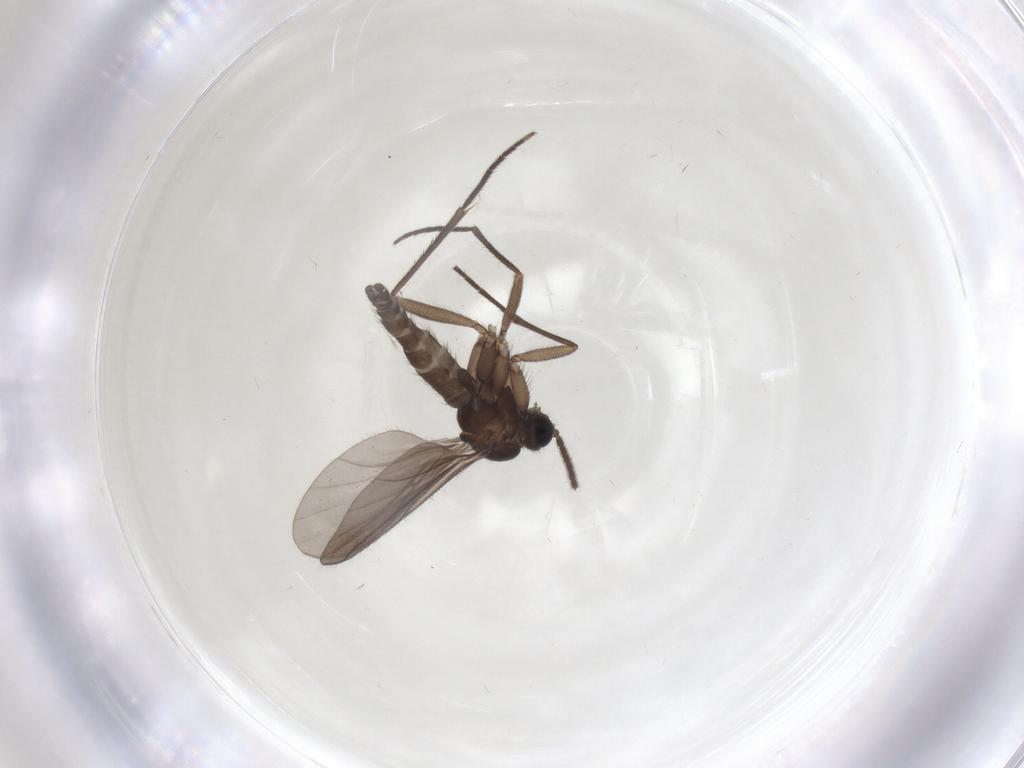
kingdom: Animalia
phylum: Arthropoda
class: Insecta
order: Diptera
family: Sciaridae
